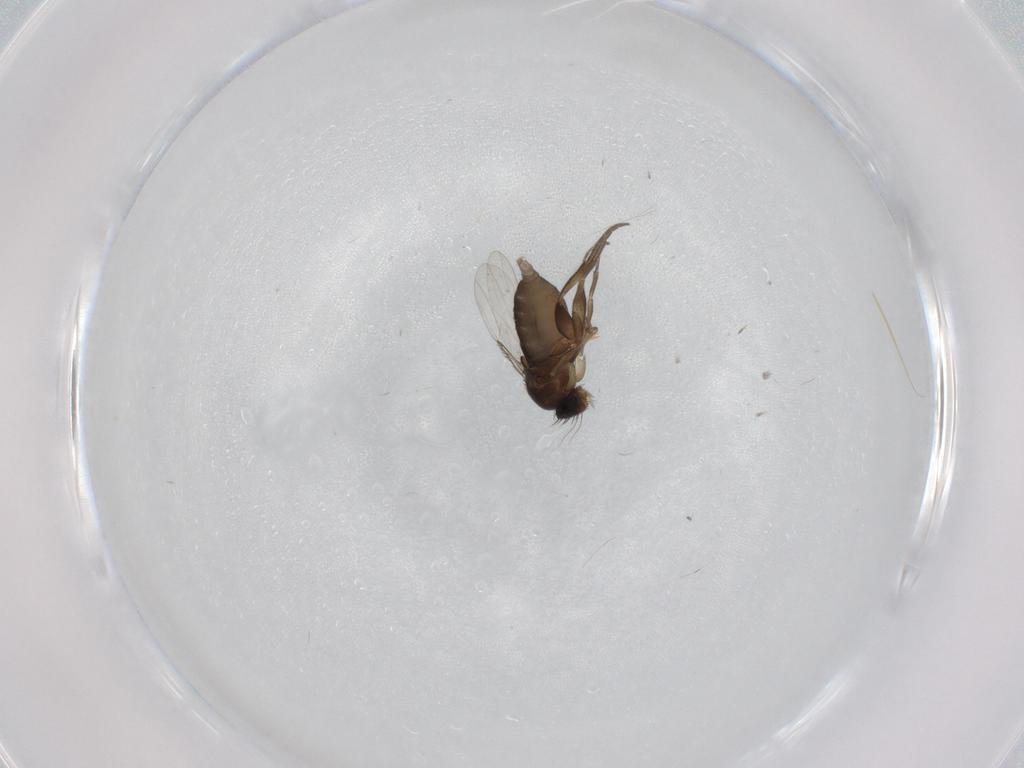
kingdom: Animalia
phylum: Arthropoda
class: Insecta
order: Diptera
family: Phoridae
